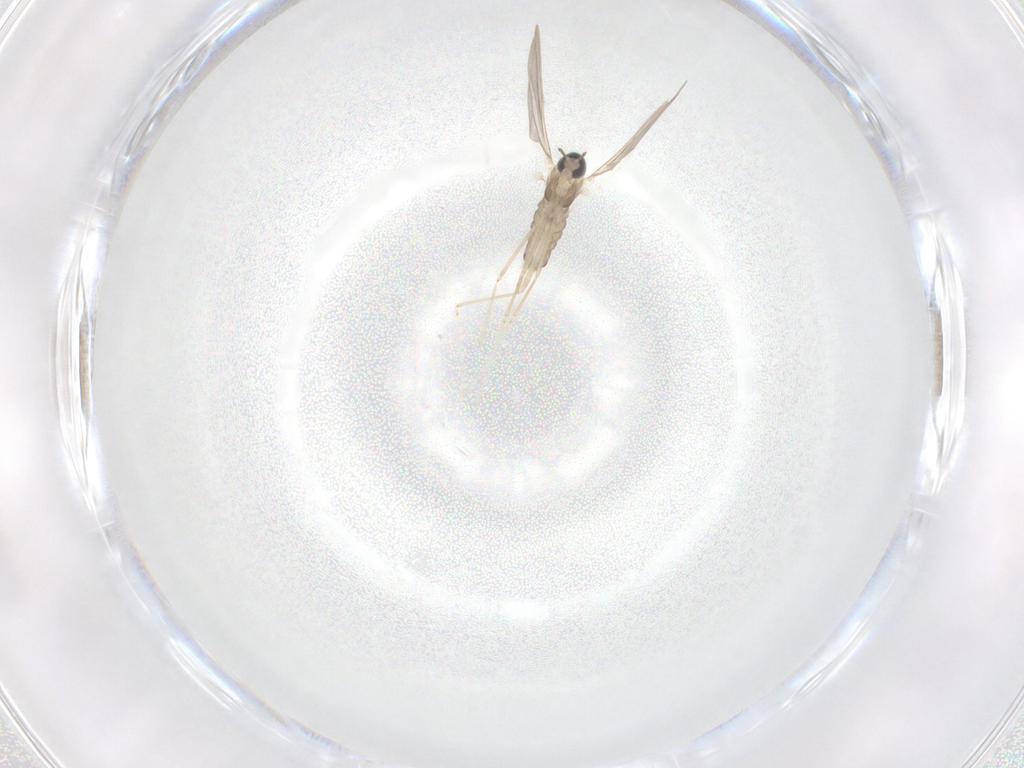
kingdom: Animalia
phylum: Arthropoda
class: Insecta
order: Diptera
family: Cecidomyiidae
